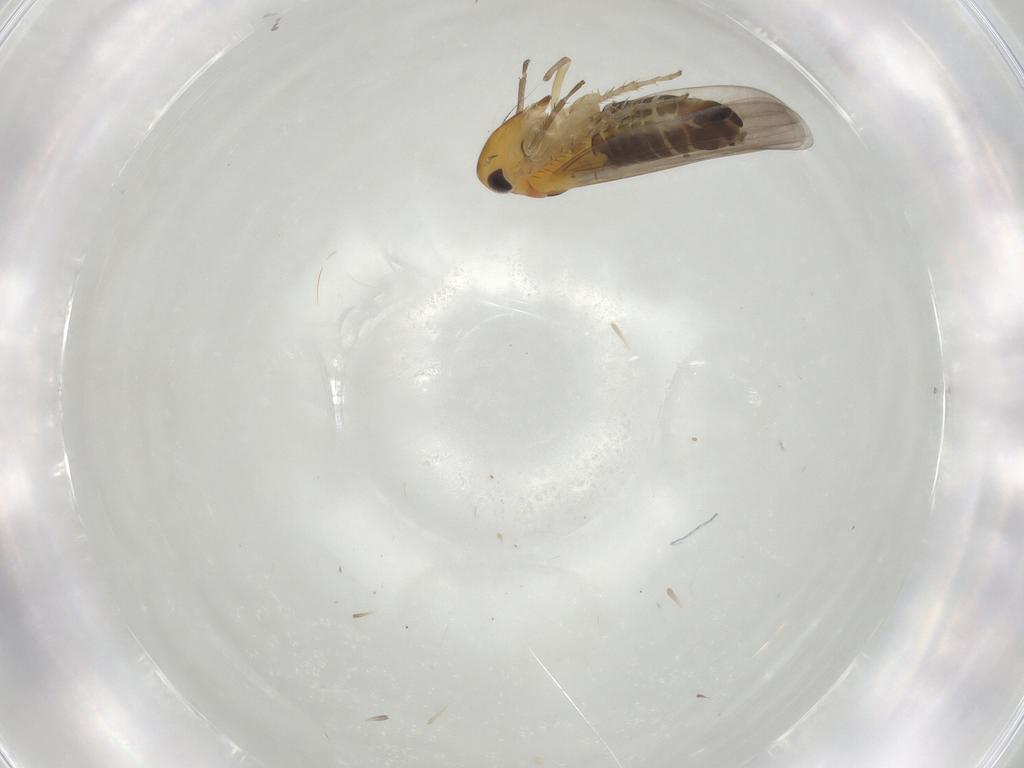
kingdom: Animalia
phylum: Arthropoda
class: Insecta
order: Hemiptera
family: Cicadellidae
